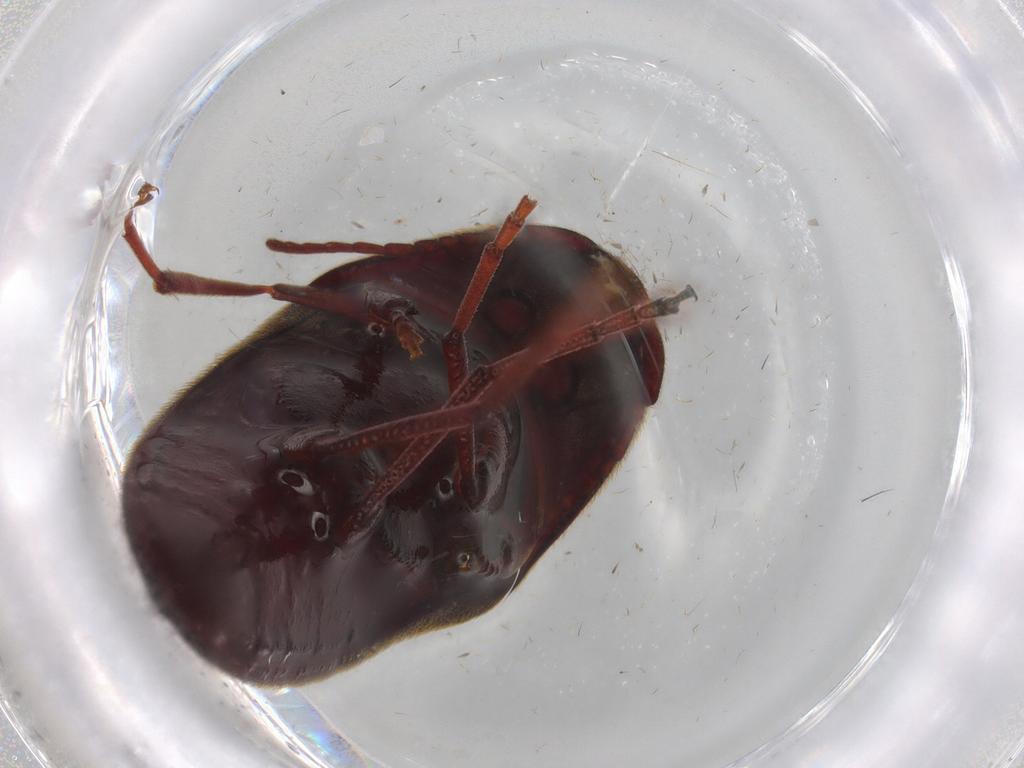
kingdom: Animalia
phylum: Arthropoda
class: Insecta
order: Coleoptera
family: Eucnemidae
